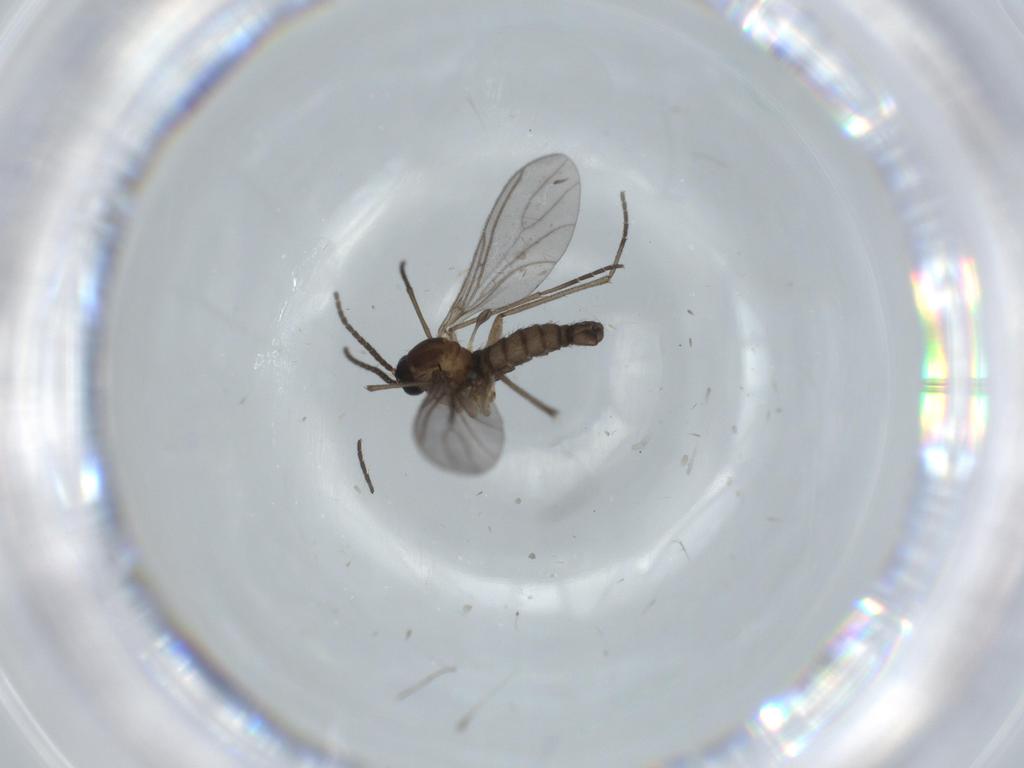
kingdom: Animalia
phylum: Arthropoda
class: Insecta
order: Diptera
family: Sciaridae
